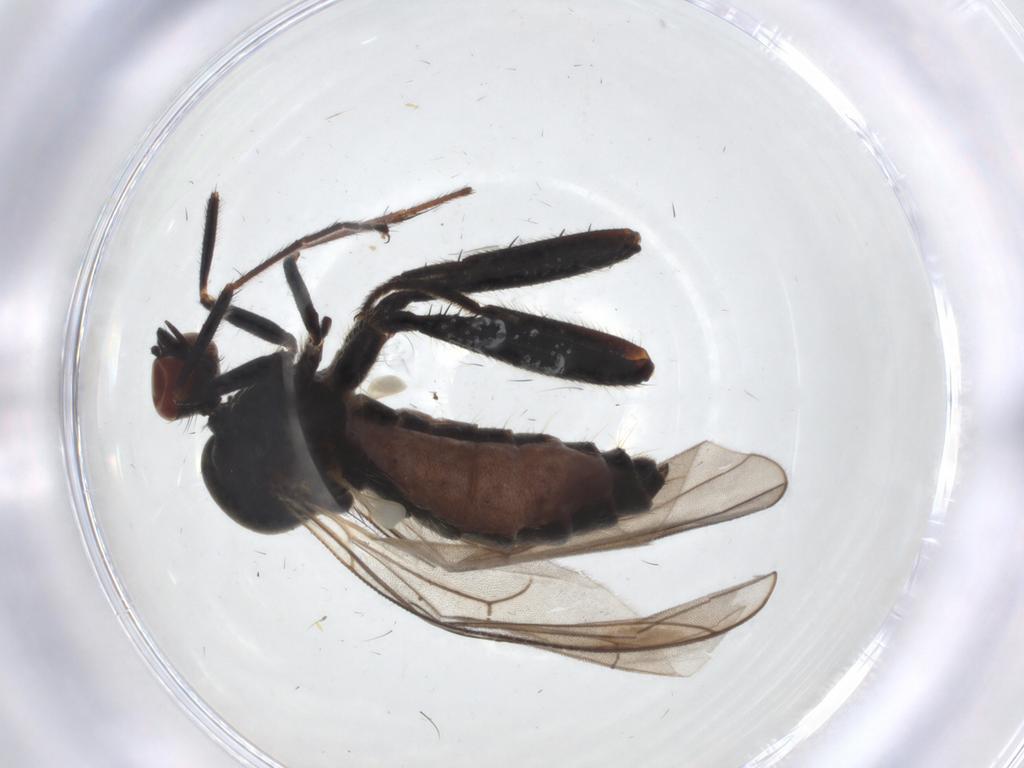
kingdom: Animalia
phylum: Arthropoda
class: Insecta
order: Diptera
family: Hybotidae
